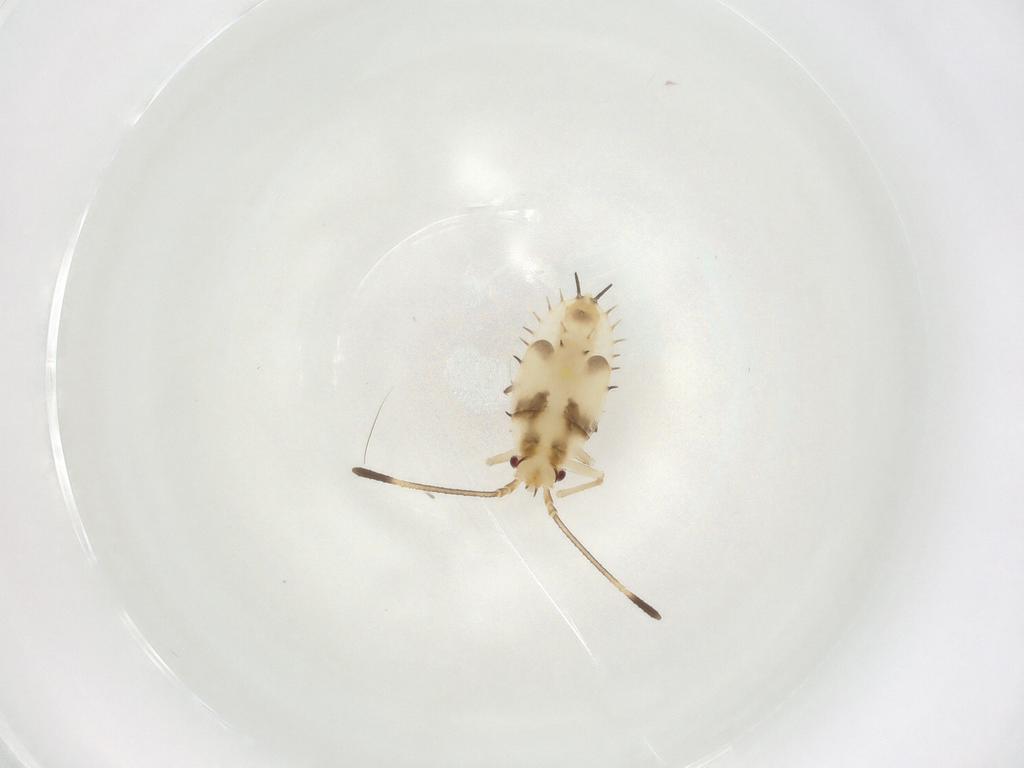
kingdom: Animalia
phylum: Arthropoda
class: Insecta
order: Hemiptera
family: Tingidae
